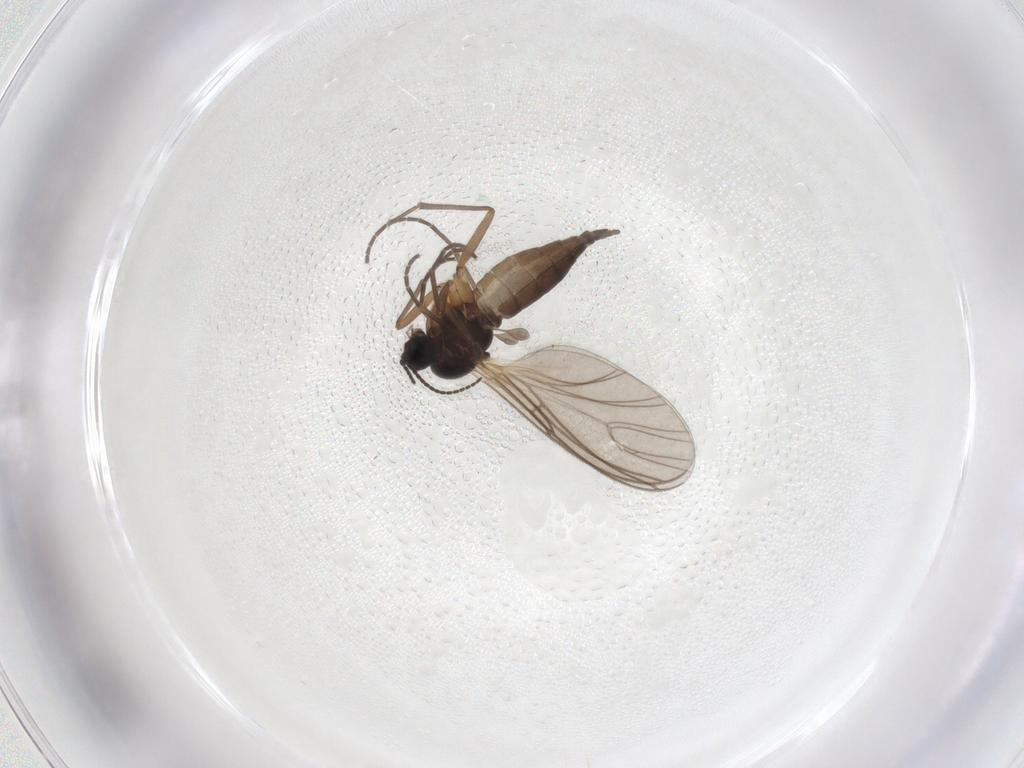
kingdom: Animalia
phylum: Arthropoda
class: Insecta
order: Diptera
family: Sciaridae
